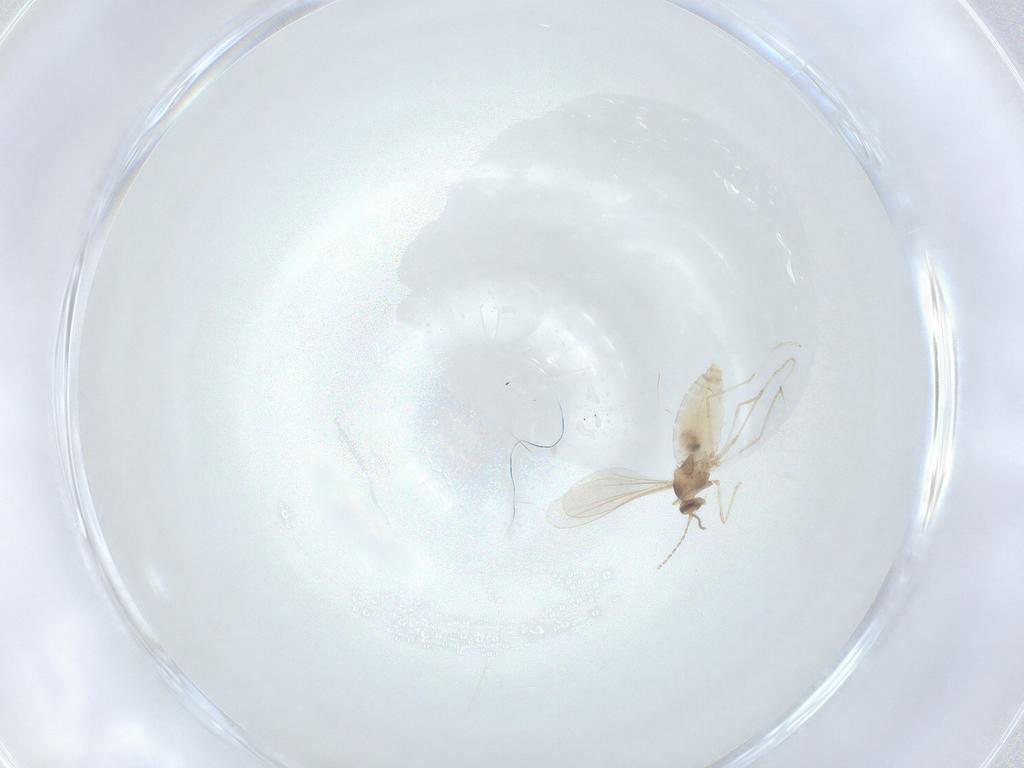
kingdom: Animalia
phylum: Arthropoda
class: Insecta
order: Diptera
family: Cecidomyiidae
